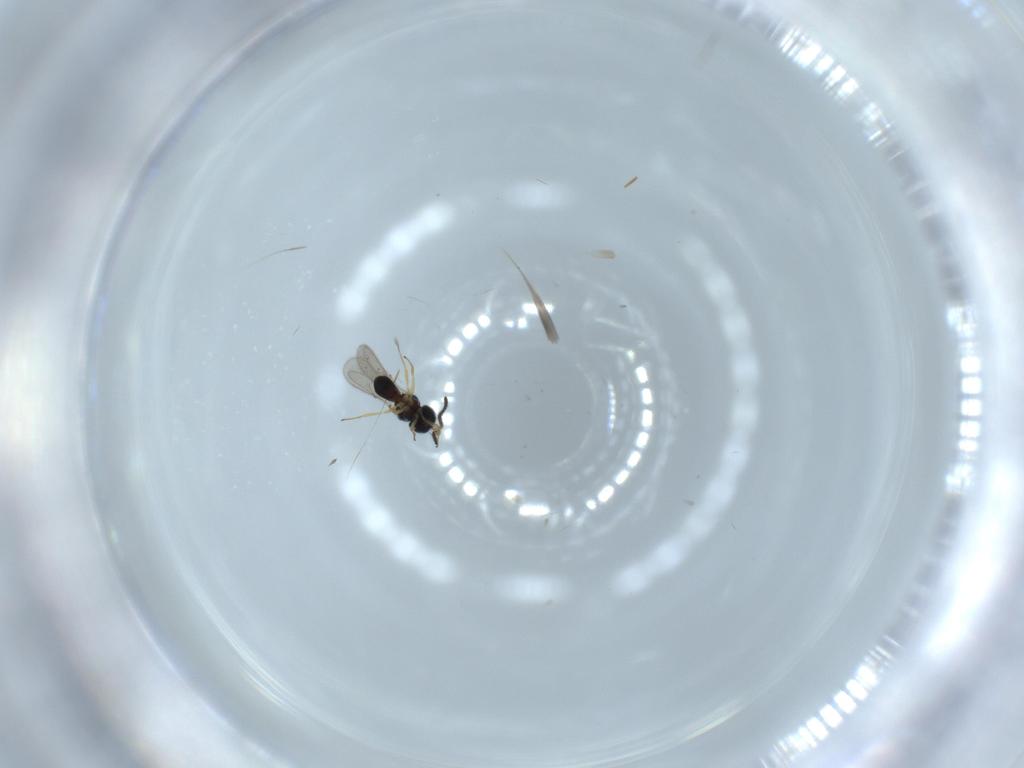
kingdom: Animalia
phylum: Arthropoda
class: Insecta
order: Hymenoptera
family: Scelionidae
